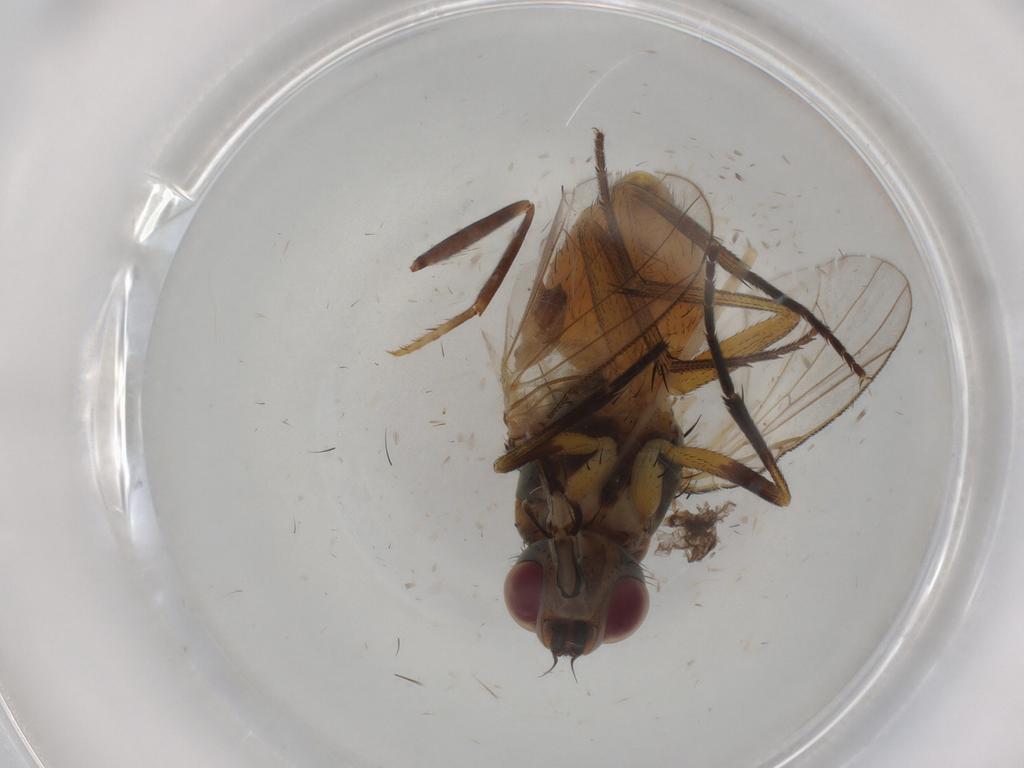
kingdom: Animalia
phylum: Arthropoda
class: Insecta
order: Diptera
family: Muscidae
